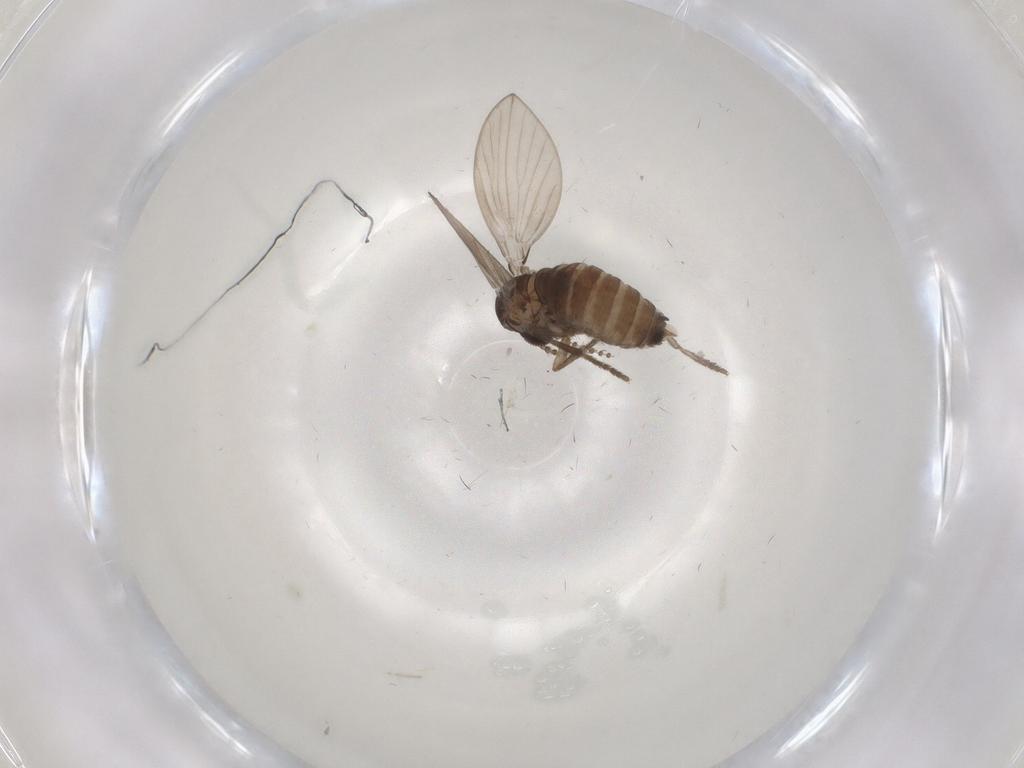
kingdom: Animalia
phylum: Arthropoda
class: Insecta
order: Diptera
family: Psychodidae
